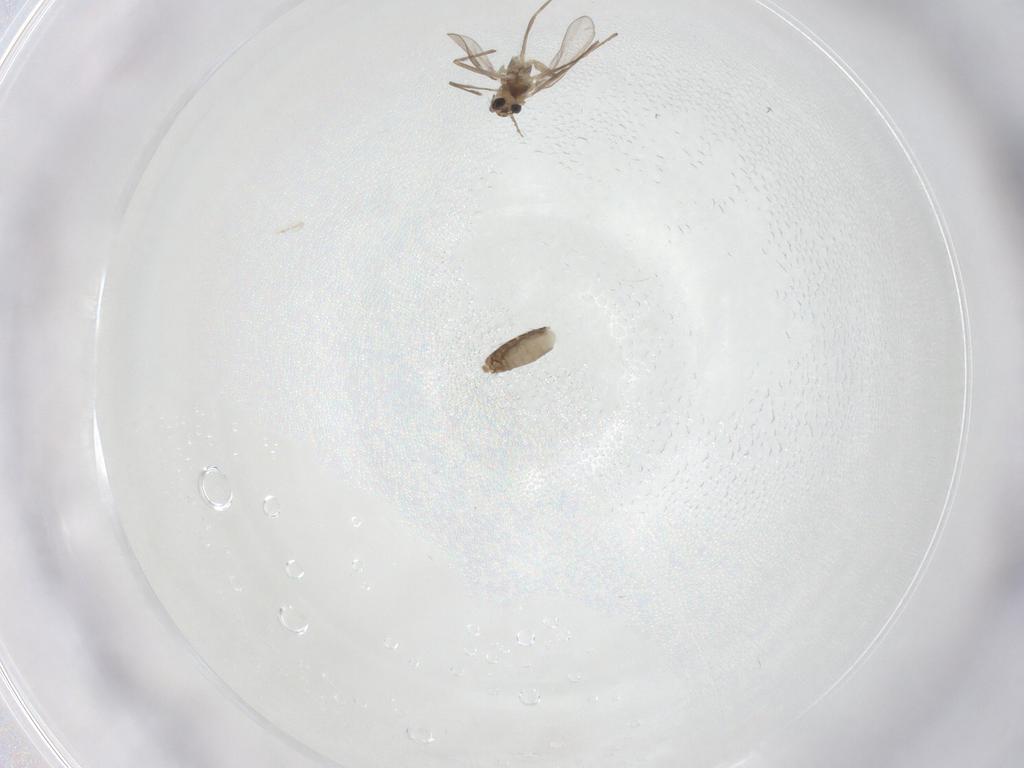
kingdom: Animalia
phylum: Arthropoda
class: Insecta
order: Diptera
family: Chironomidae
